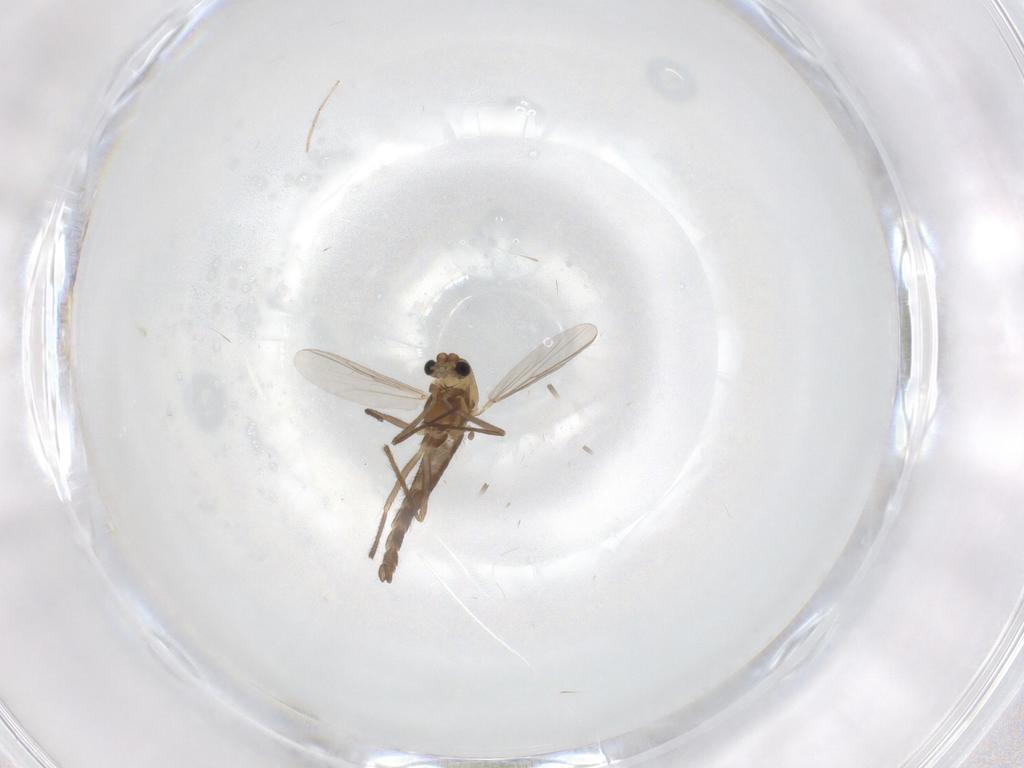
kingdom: Animalia
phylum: Arthropoda
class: Insecta
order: Diptera
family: Chironomidae
